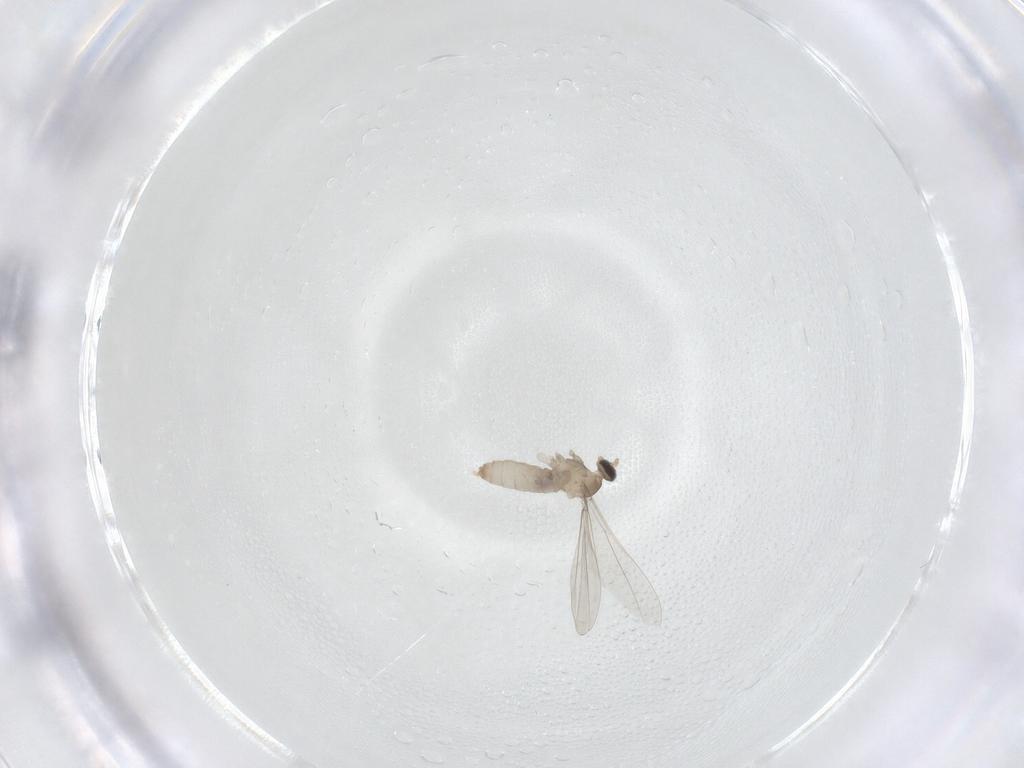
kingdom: Animalia
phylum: Arthropoda
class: Insecta
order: Diptera
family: Cecidomyiidae
